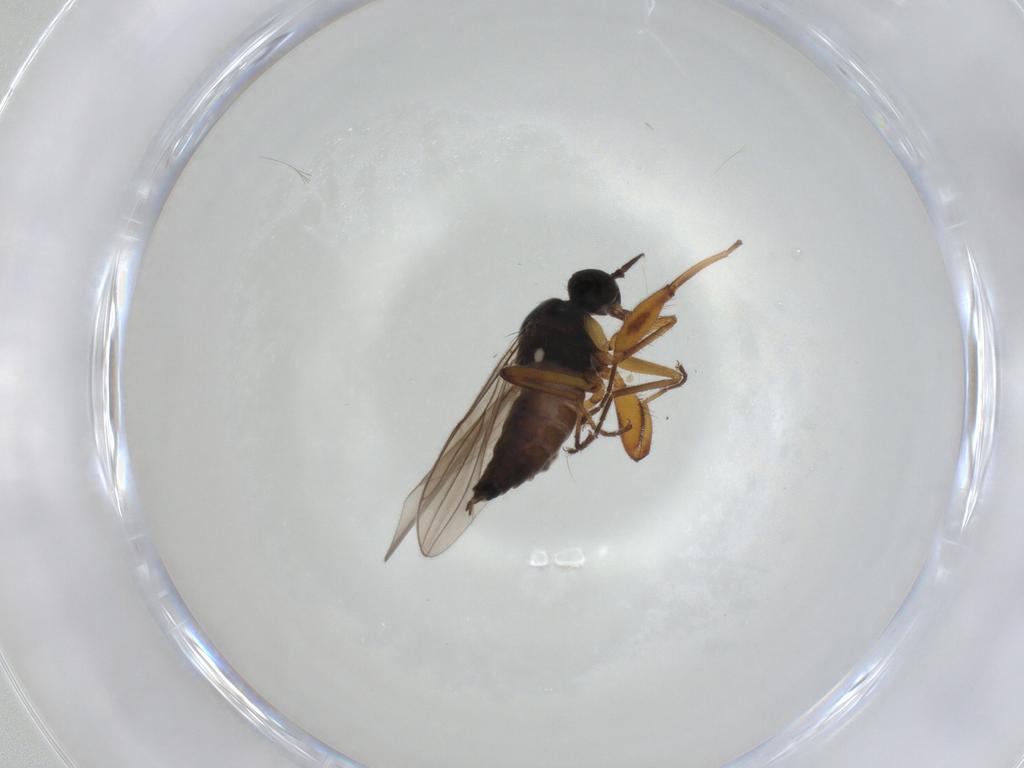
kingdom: Animalia
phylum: Arthropoda
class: Insecta
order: Diptera
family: Hybotidae
